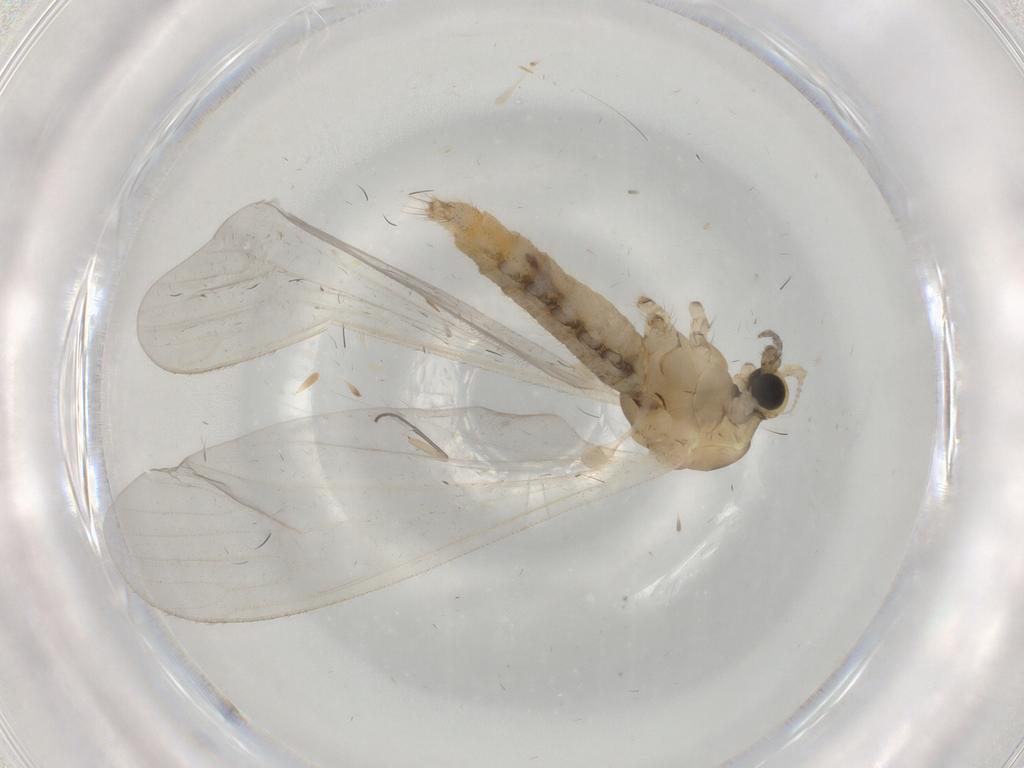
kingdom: Animalia
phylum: Arthropoda
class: Insecta
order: Diptera
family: Limoniidae
